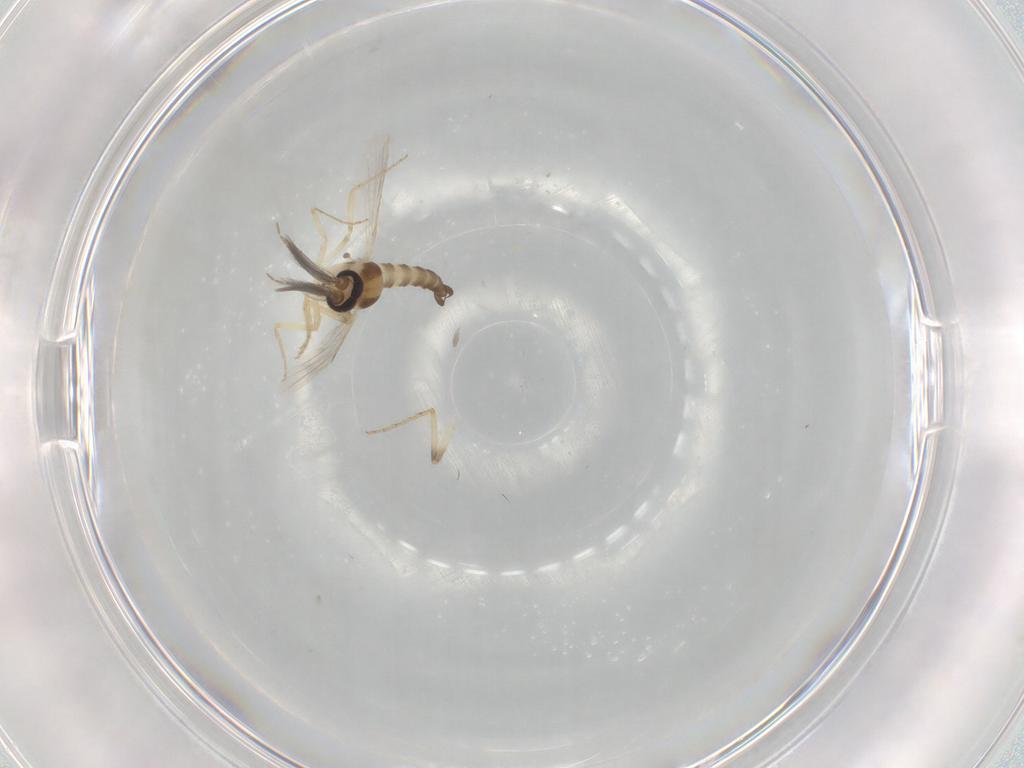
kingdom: Animalia
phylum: Arthropoda
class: Insecta
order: Diptera
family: Ceratopogonidae
